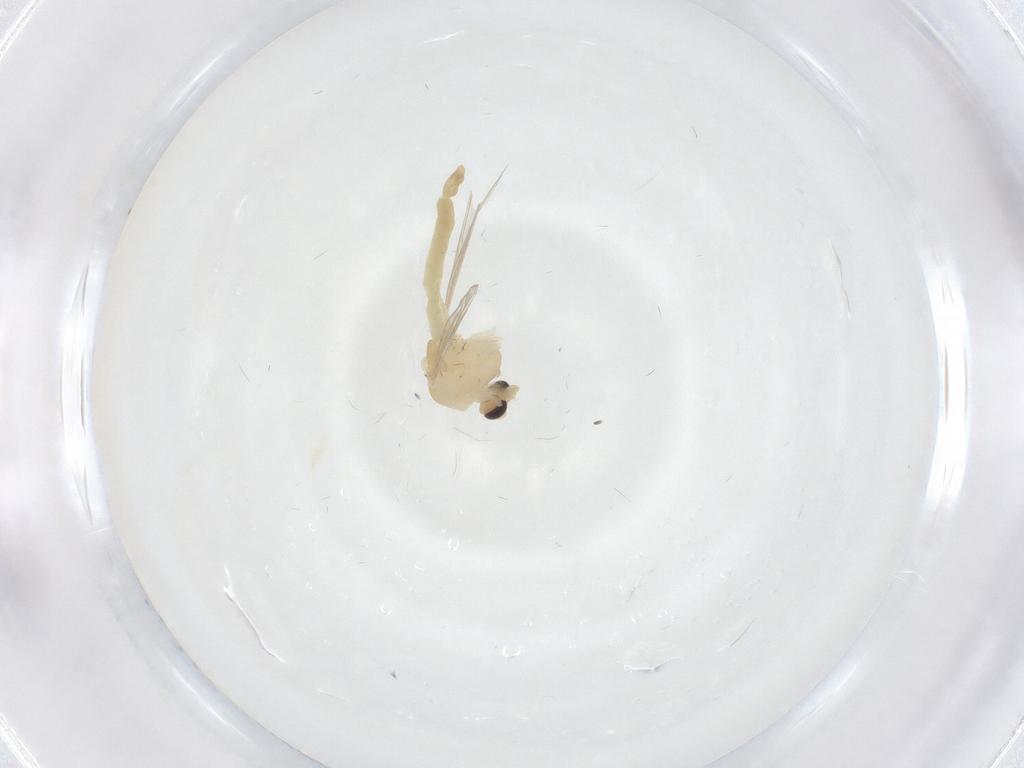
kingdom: Animalia
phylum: Arthropoda
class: Insecta
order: Diptera
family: Chironomidae
